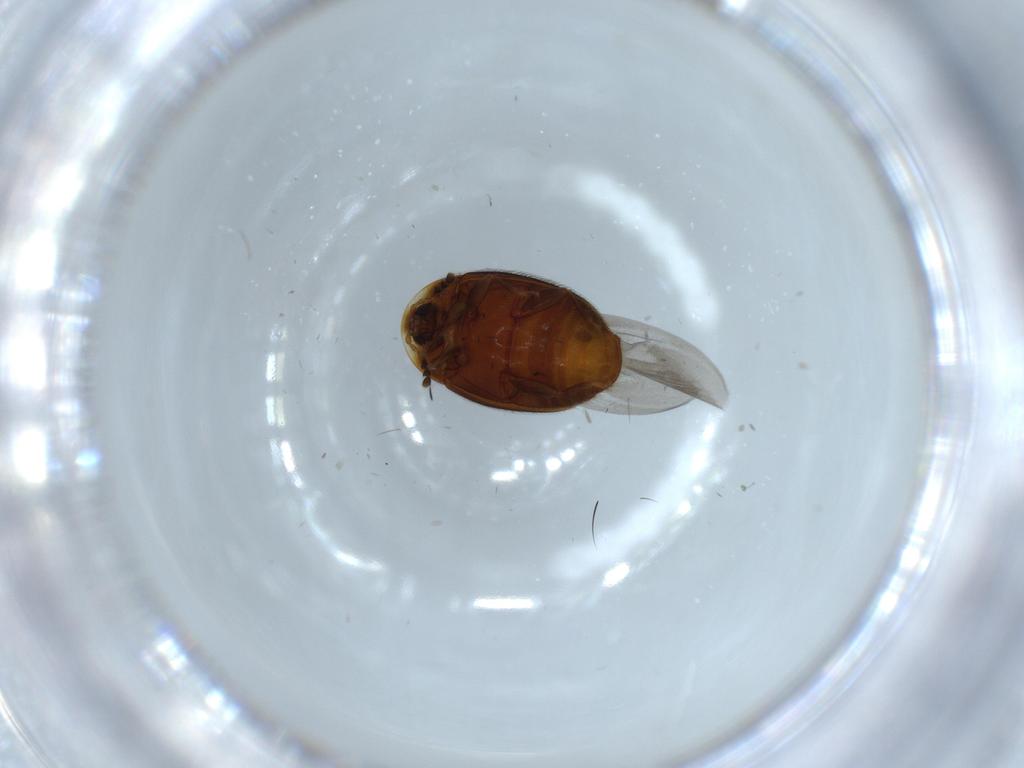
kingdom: Animalia
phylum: Arthropoda
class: Insecta
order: Coleoptera
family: Corylophidae
